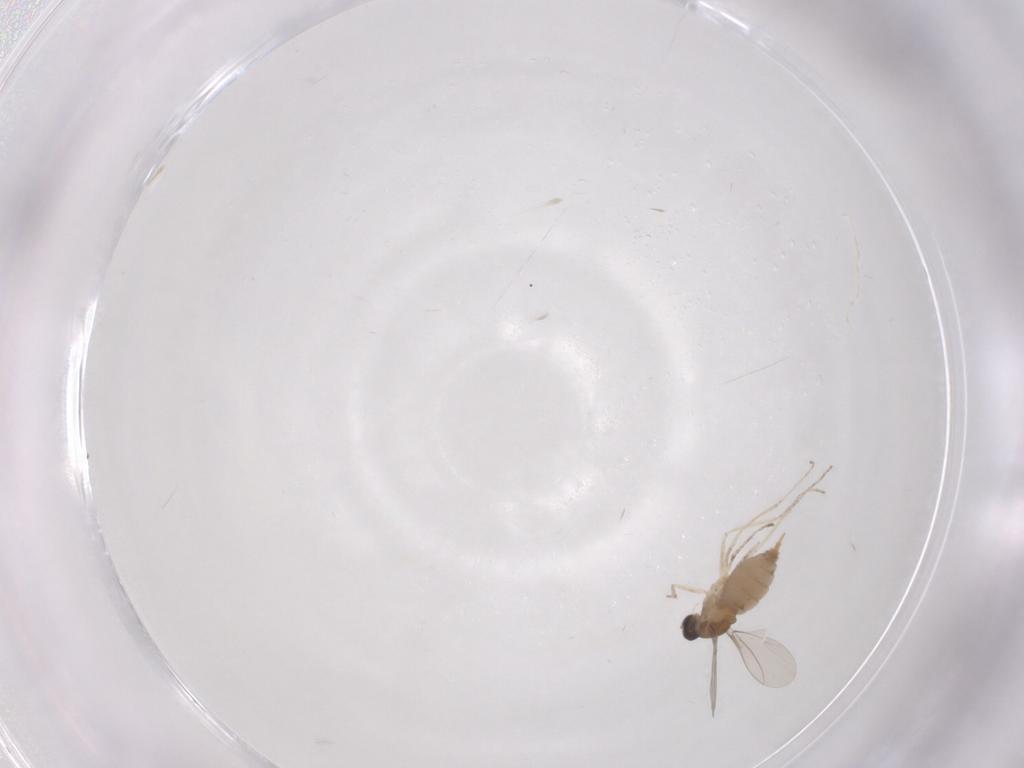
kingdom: Animalia
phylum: Arthropoda
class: Insecta
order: Diptera
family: Cecidomyiidae
